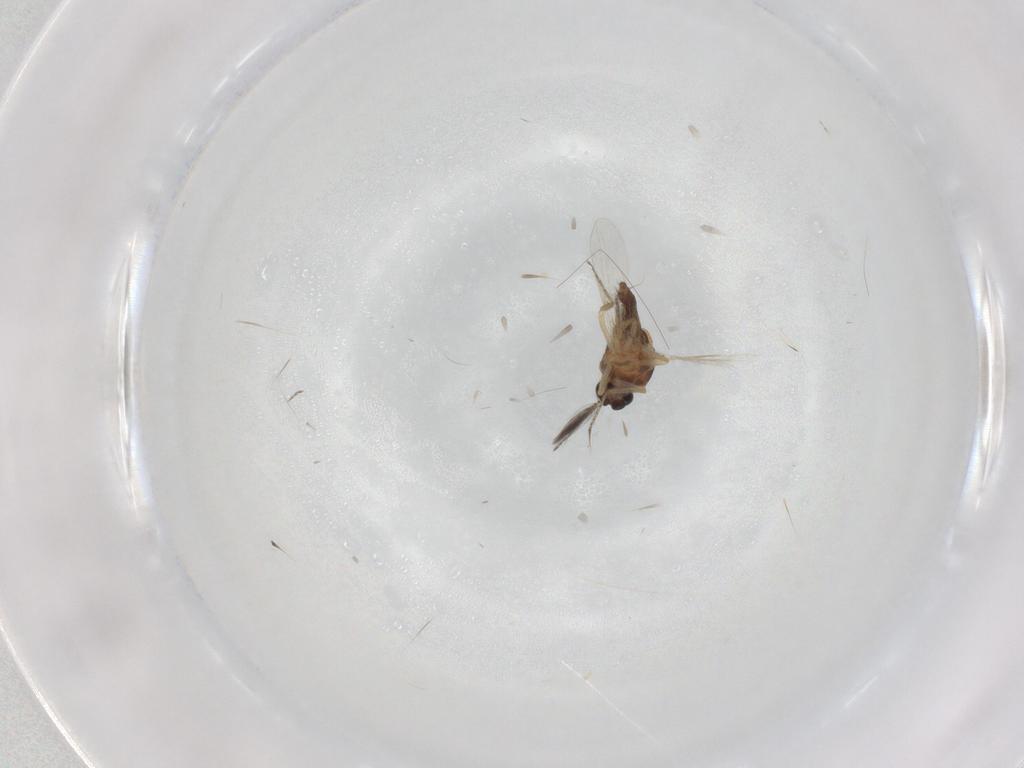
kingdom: Animalia
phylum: Arthropoda
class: Insecta
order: Diptera
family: Ceratopogonidae
